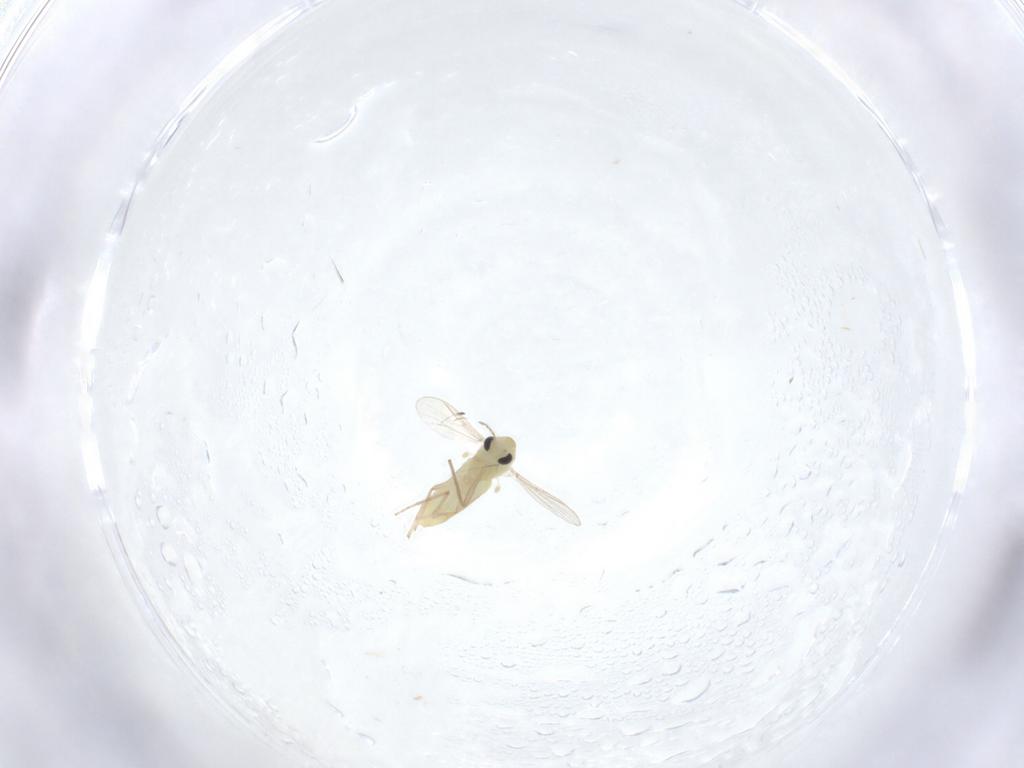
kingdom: Animalia
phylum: Arthropoda
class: Insecta
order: Diptera
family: Chironomidae
